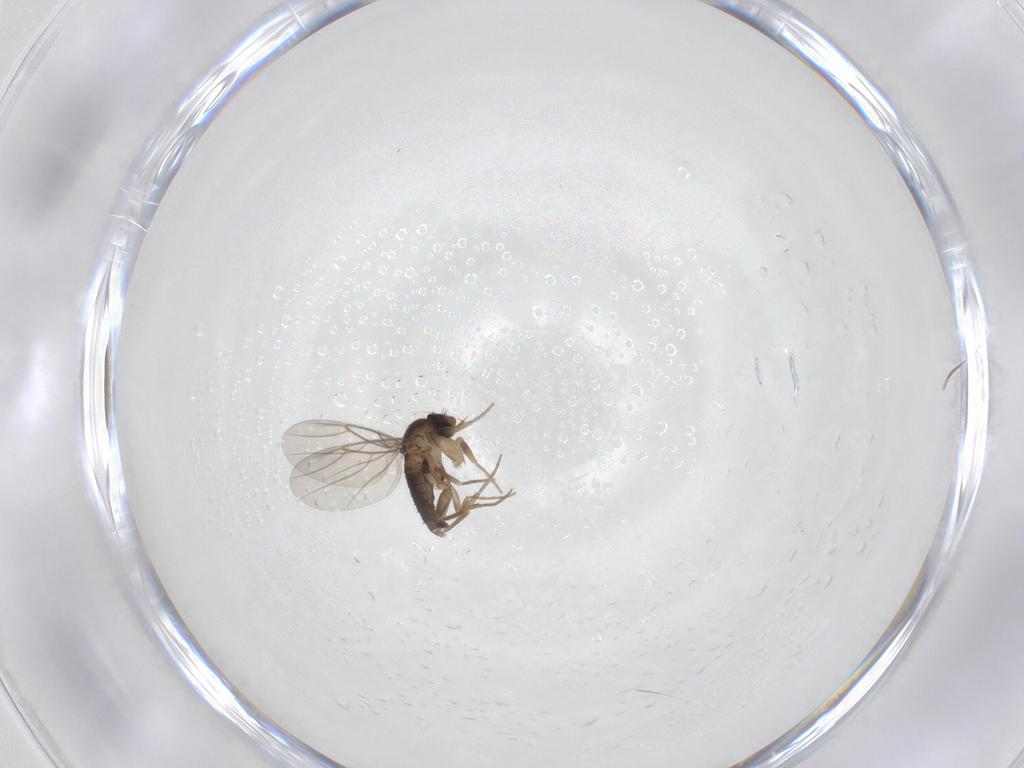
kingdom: Animalia
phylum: Arthropoda
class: Insecta
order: Diptera
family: Phoridae
